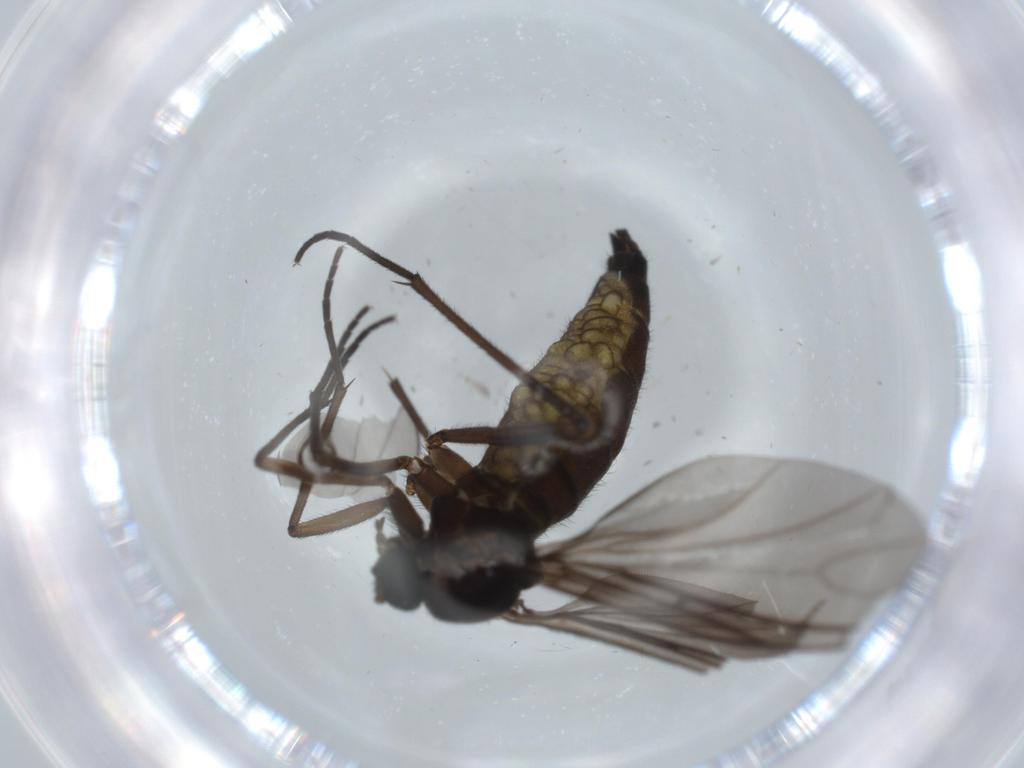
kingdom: Animalia
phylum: Arthropoda
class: Insecta
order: Diptera
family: Sciaridae
